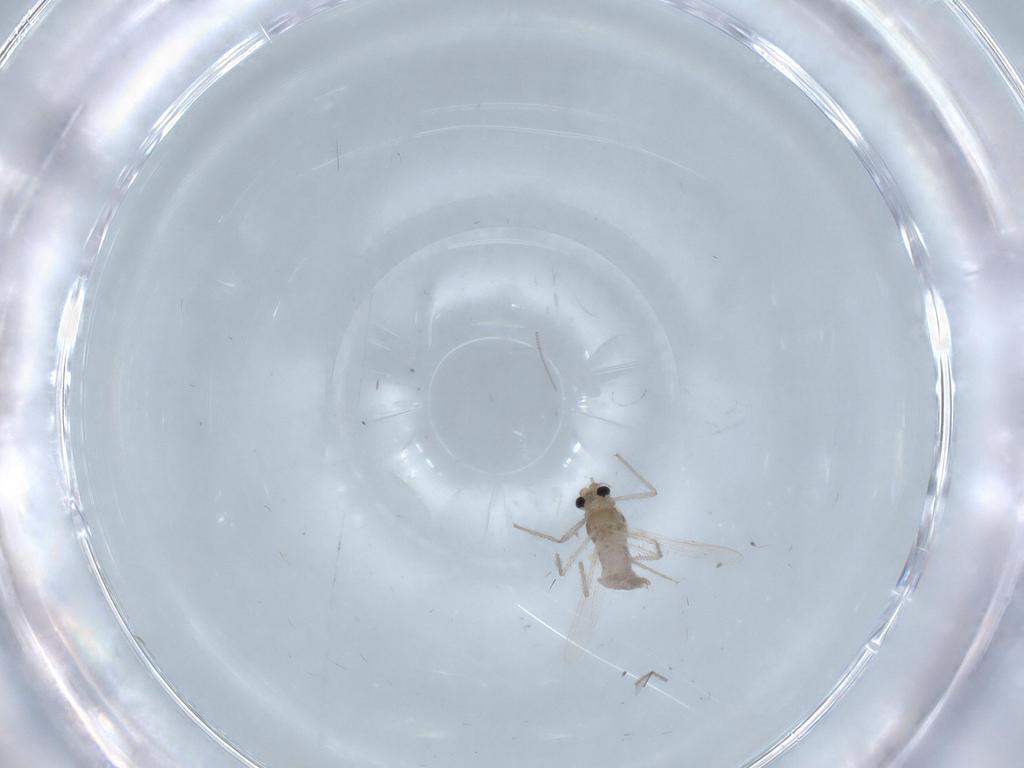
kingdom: Animalia
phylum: Arthropoda
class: Insecta
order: Diptera
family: Chironomidae
